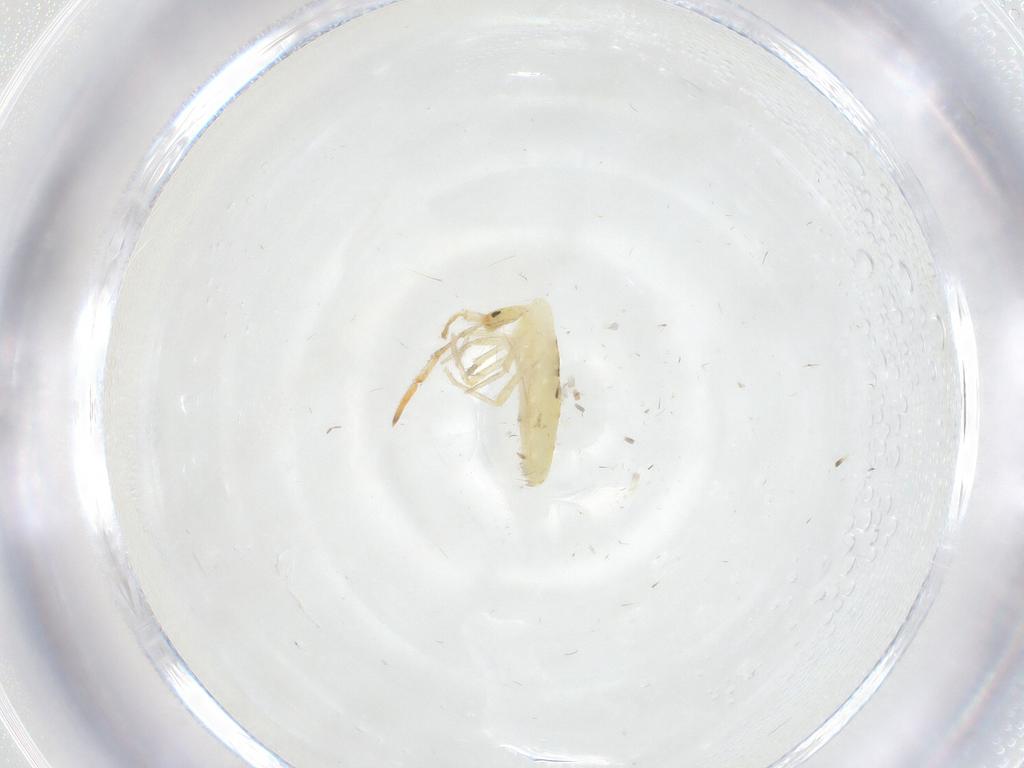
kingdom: Animalia
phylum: Arthropoda
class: Collembola
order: Entomobryomorpha
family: Entomobryidae
